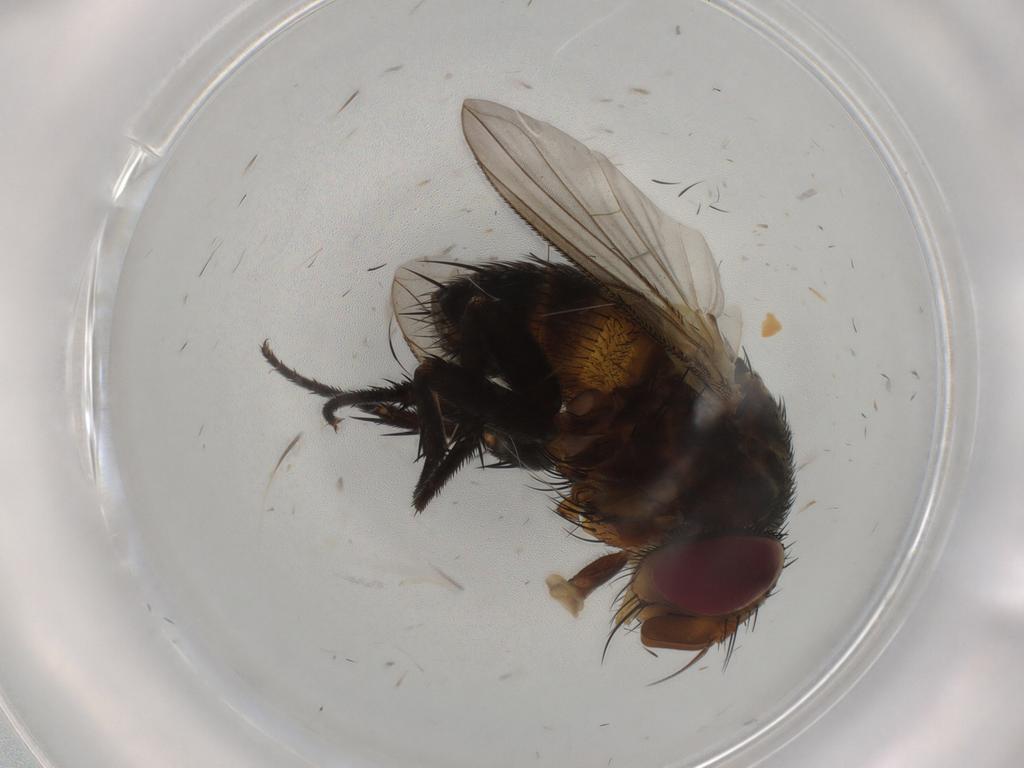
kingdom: Animalia
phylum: Arthropoda
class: Insecta
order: Diptera
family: Tachinidae
